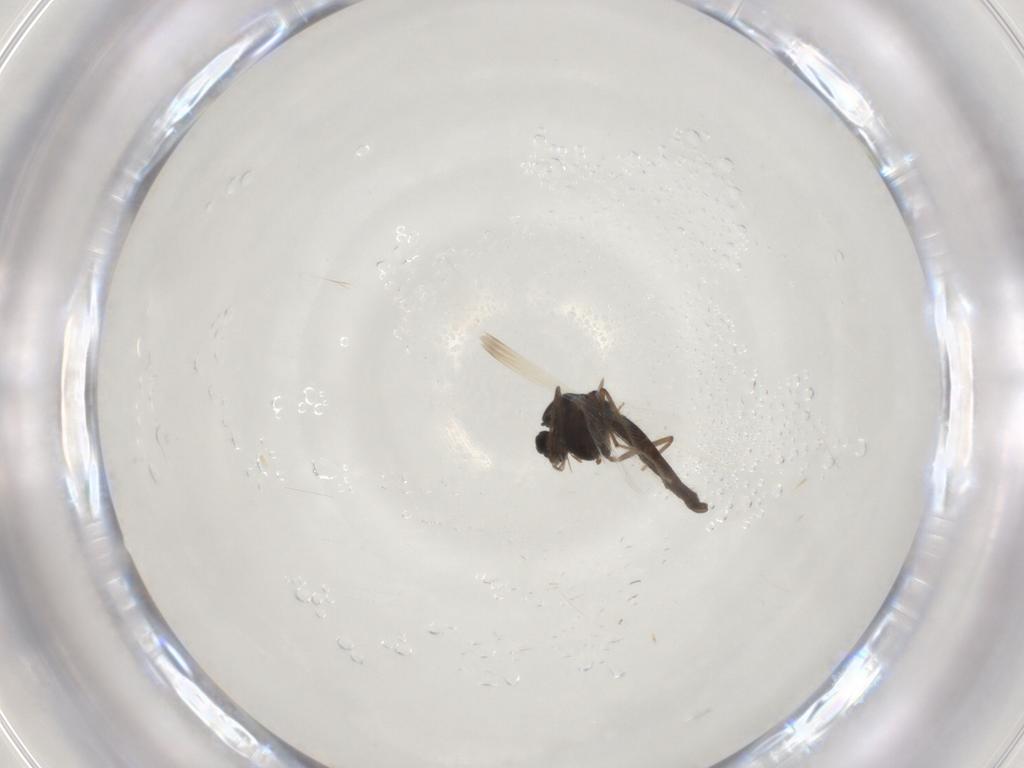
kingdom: Animalia
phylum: Arthropoda
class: Insecta
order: Diptera
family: Chironomidae
